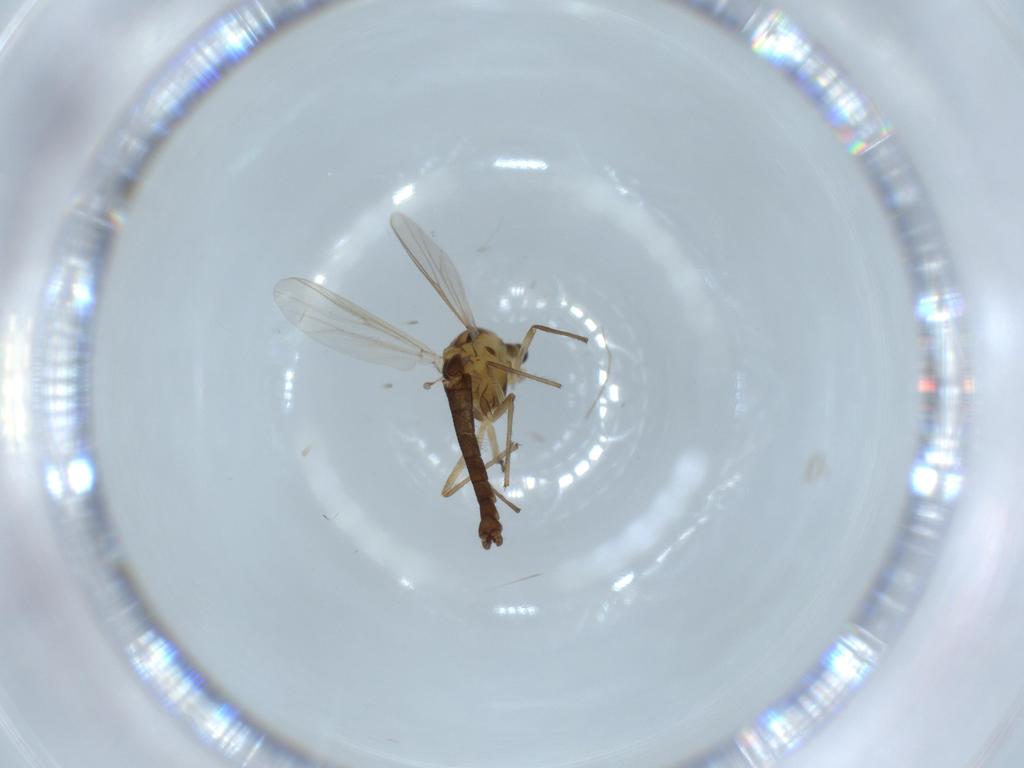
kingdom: Animalia
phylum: Arthropoda
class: Insecta
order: Diptera
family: Chironomidae
